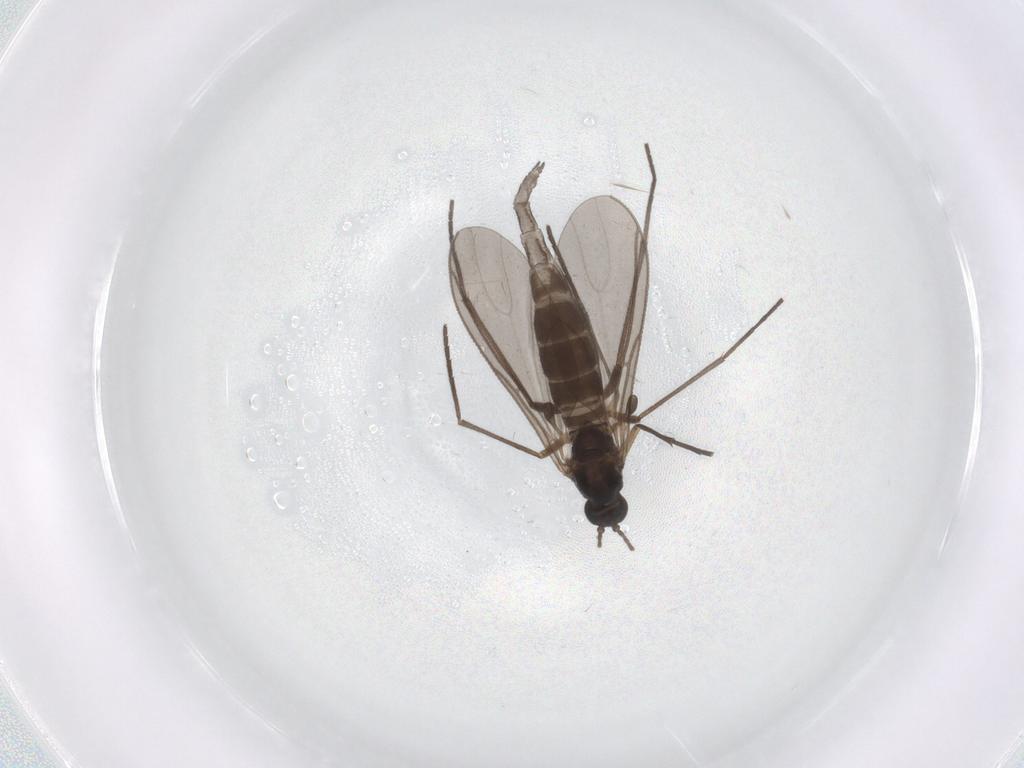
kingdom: Animalia
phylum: Arthropoda
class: Insecta
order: Diptera
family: Sciaridae
